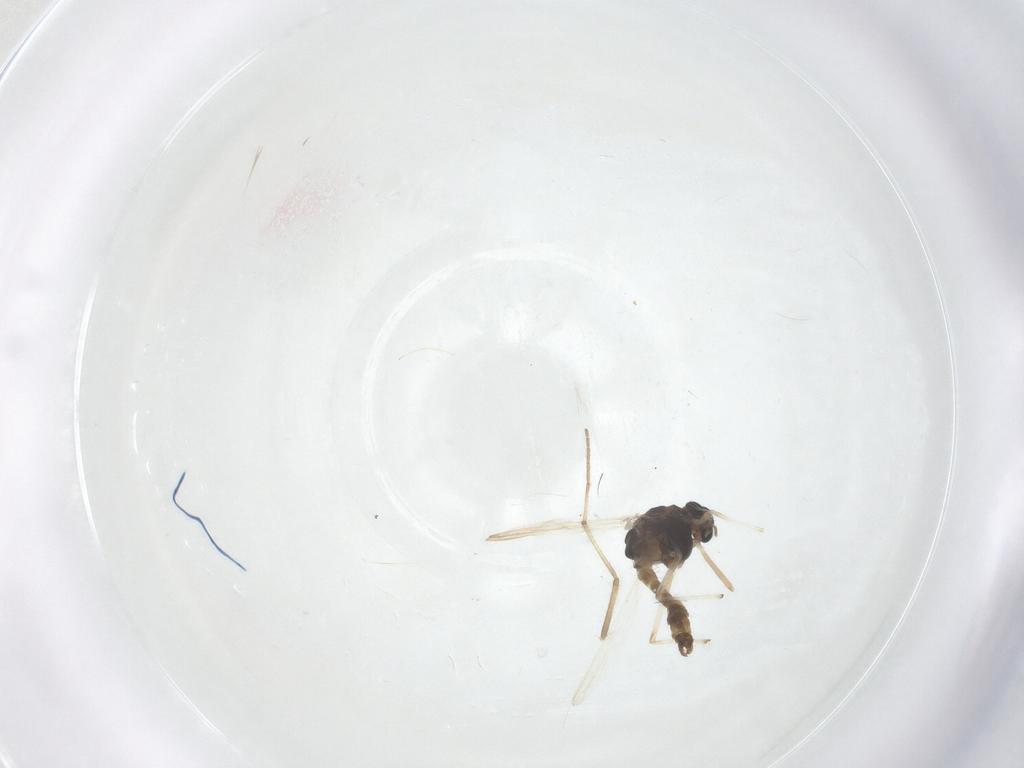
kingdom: Animalia
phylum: Arthropoda
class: Insecta
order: Diptera
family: Chironomidae
